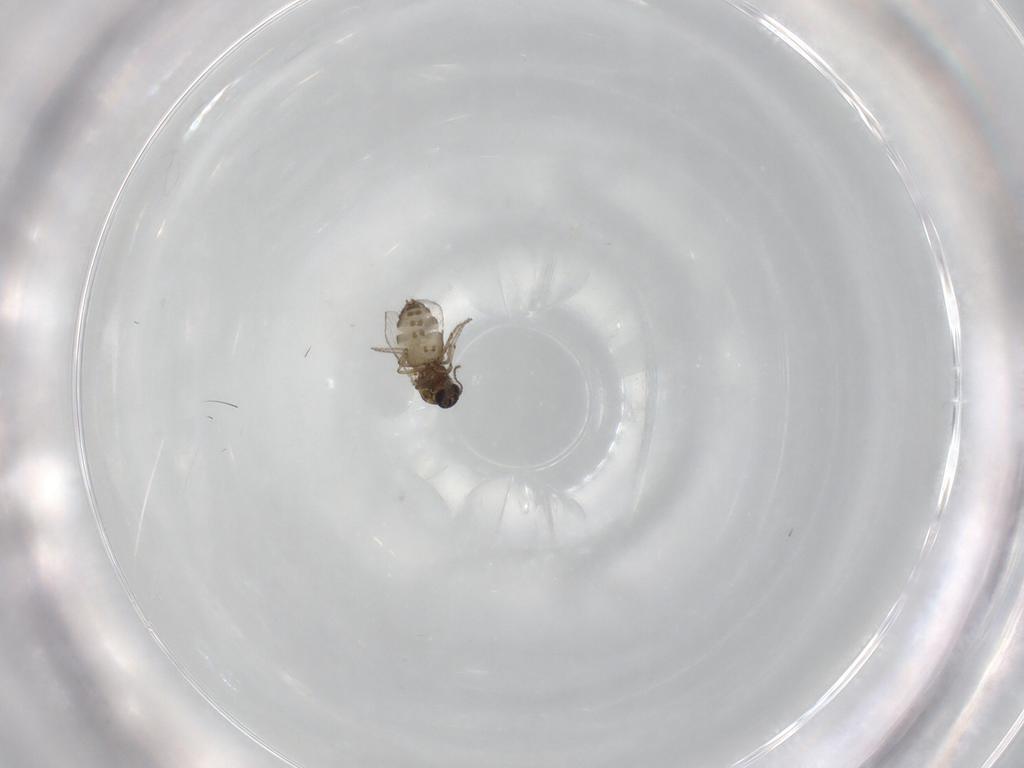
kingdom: Animalia
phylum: Arthropoda
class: Insecta
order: Diptera
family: Ceratopogonidae
